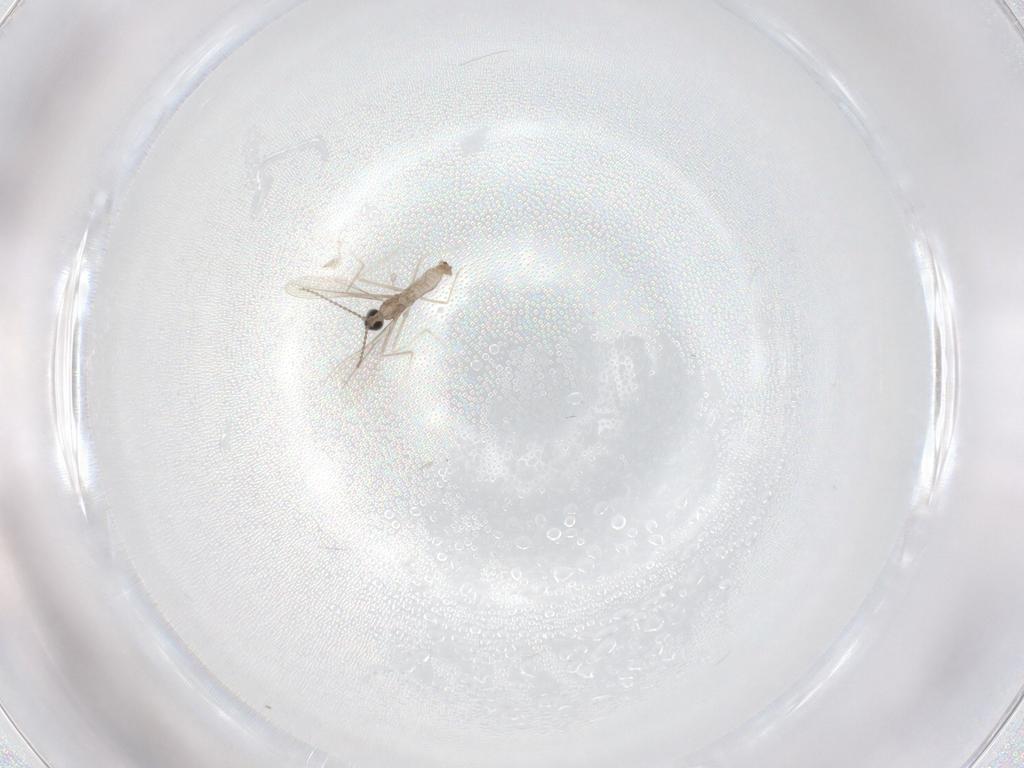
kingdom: Animalia
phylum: Arthropoda
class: Insecta
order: Diptera
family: Cecidomyiidae
